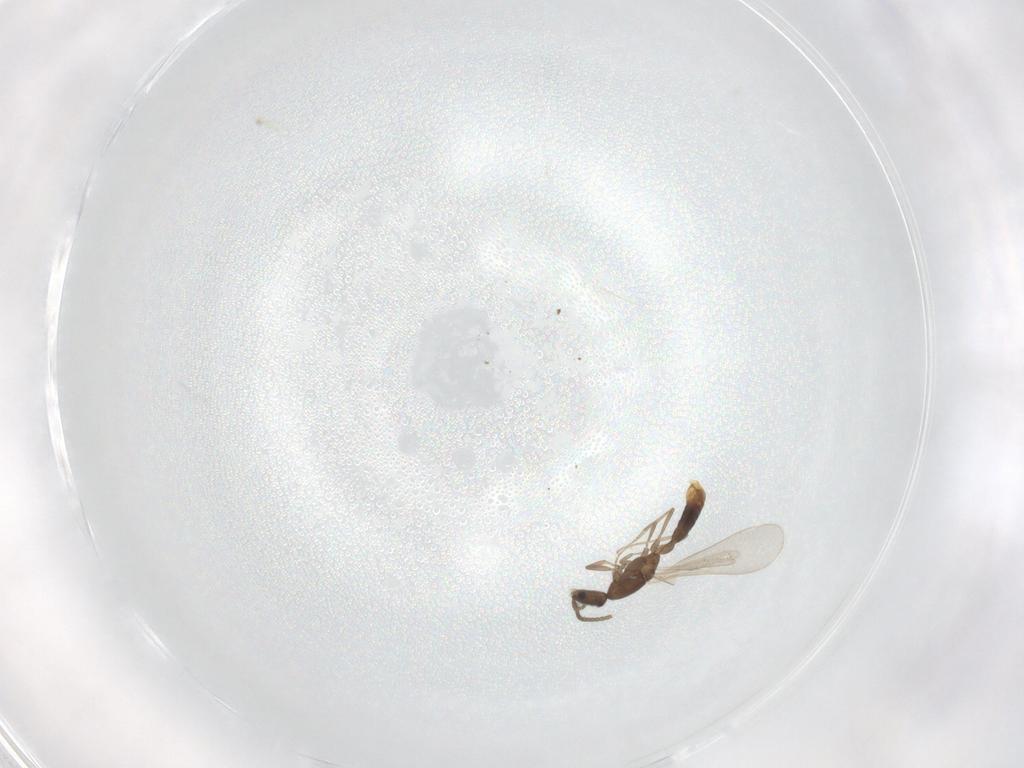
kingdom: Animalia
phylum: Arthropoda
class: Insecta
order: Hymenoptera
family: Formicidae
